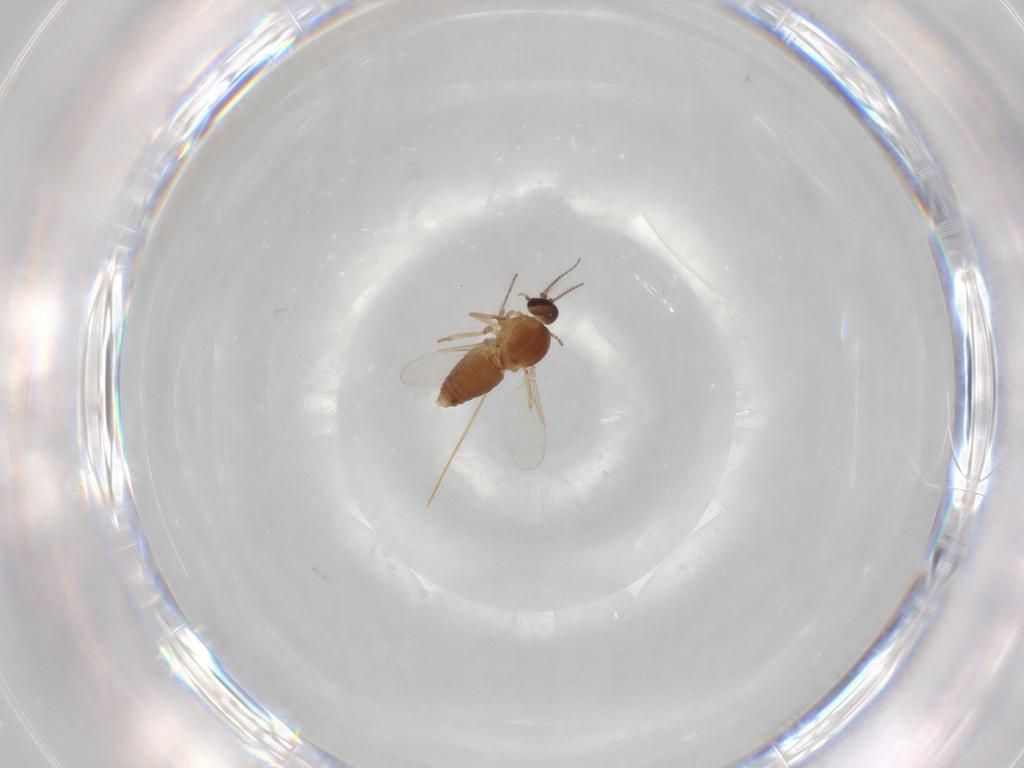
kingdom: Animalia
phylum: Arthropoda
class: Insecta
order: Diptera
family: Ceratopogonidae
